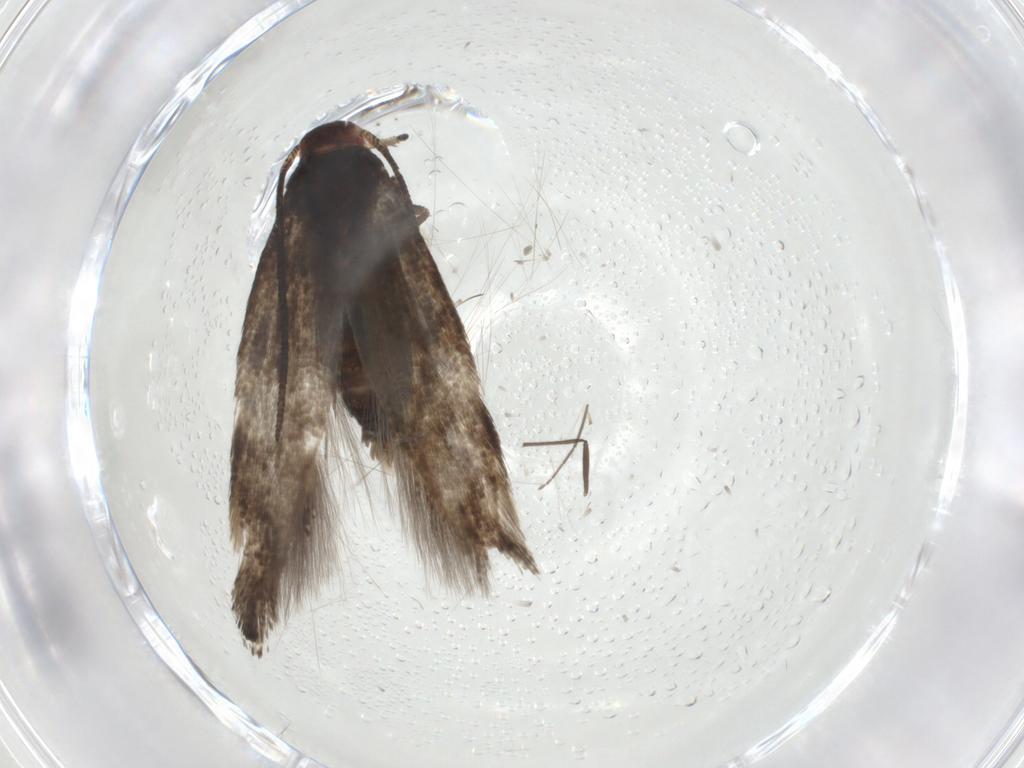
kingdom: Animalia
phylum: Arthropoda
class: Insecta
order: Lepidoptera
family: Momphidae
